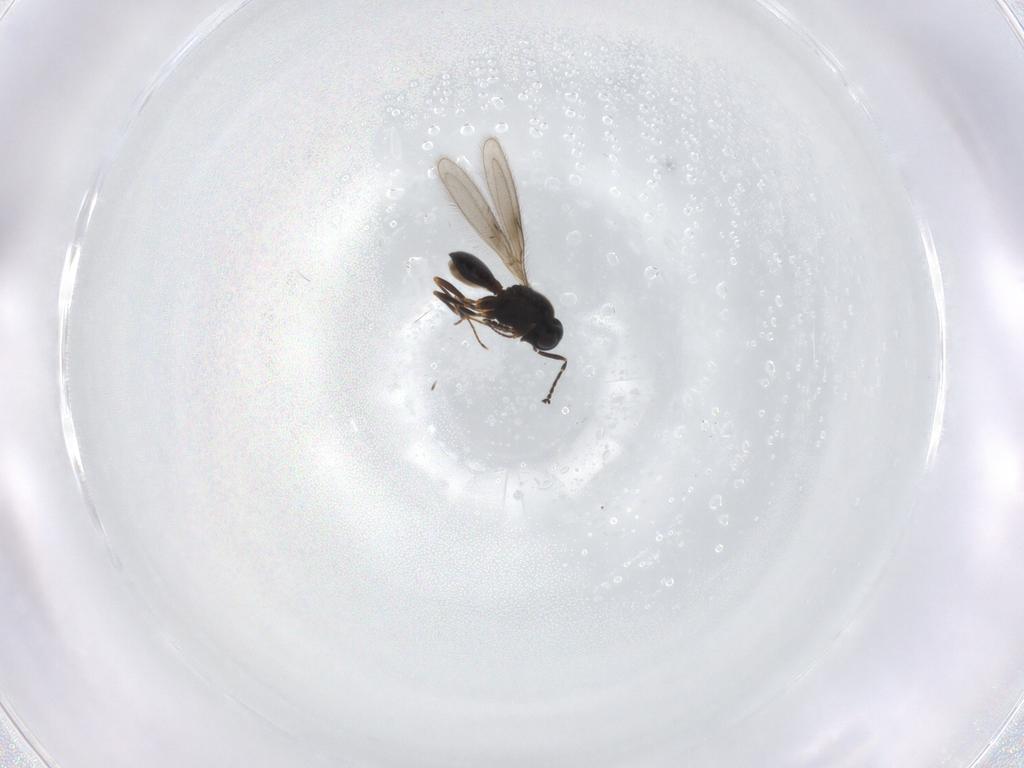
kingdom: Animalia
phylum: Arthropoda
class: Insecta
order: Hymenoptera
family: Scelionidae
